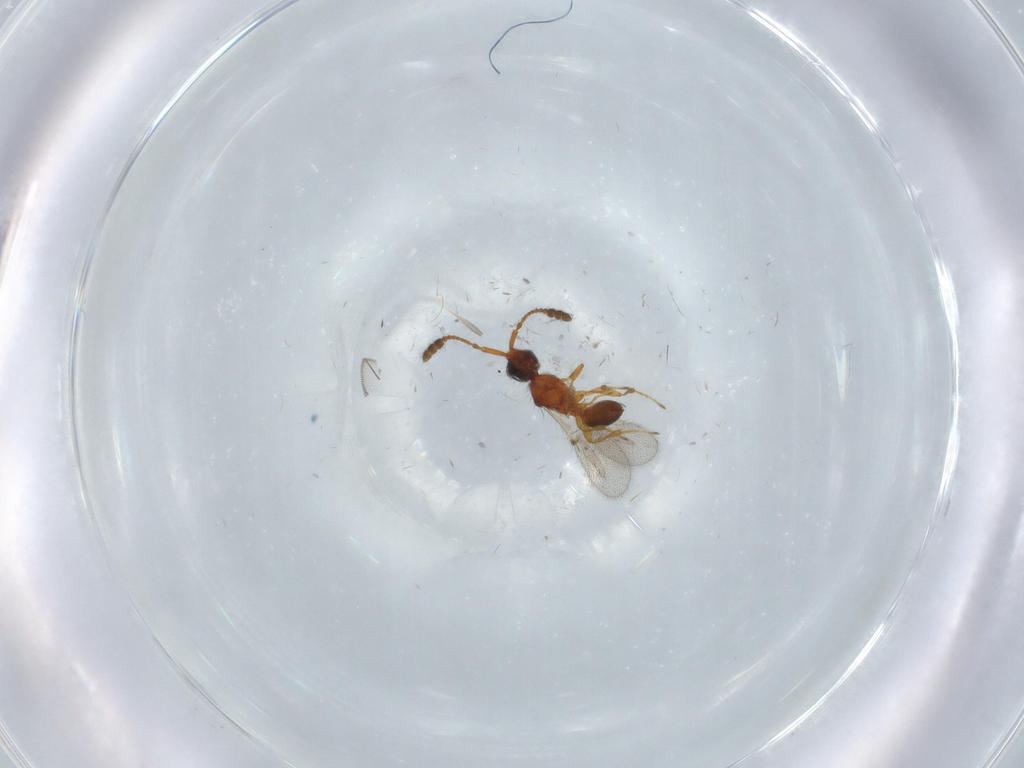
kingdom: Animalia
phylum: Arthropoda
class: Insecta
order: Hymenoptera
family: Diapriidae
